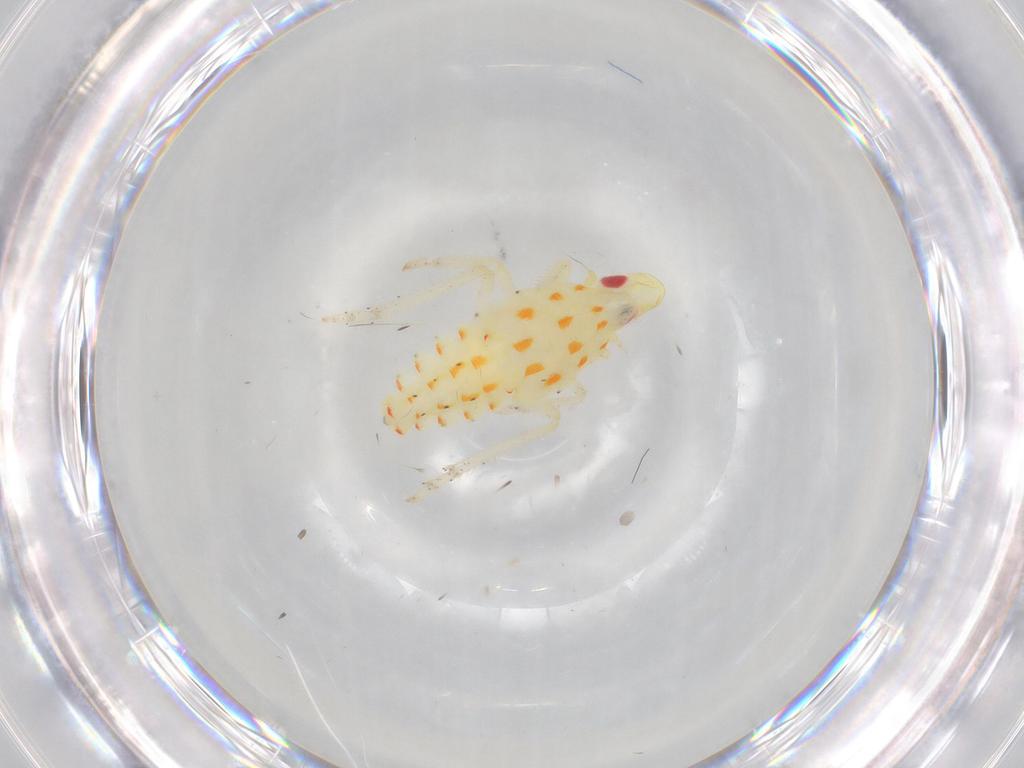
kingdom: Animalia
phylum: Arthropoda
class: Insecta
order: Hemiptera
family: Tropiduchidae
